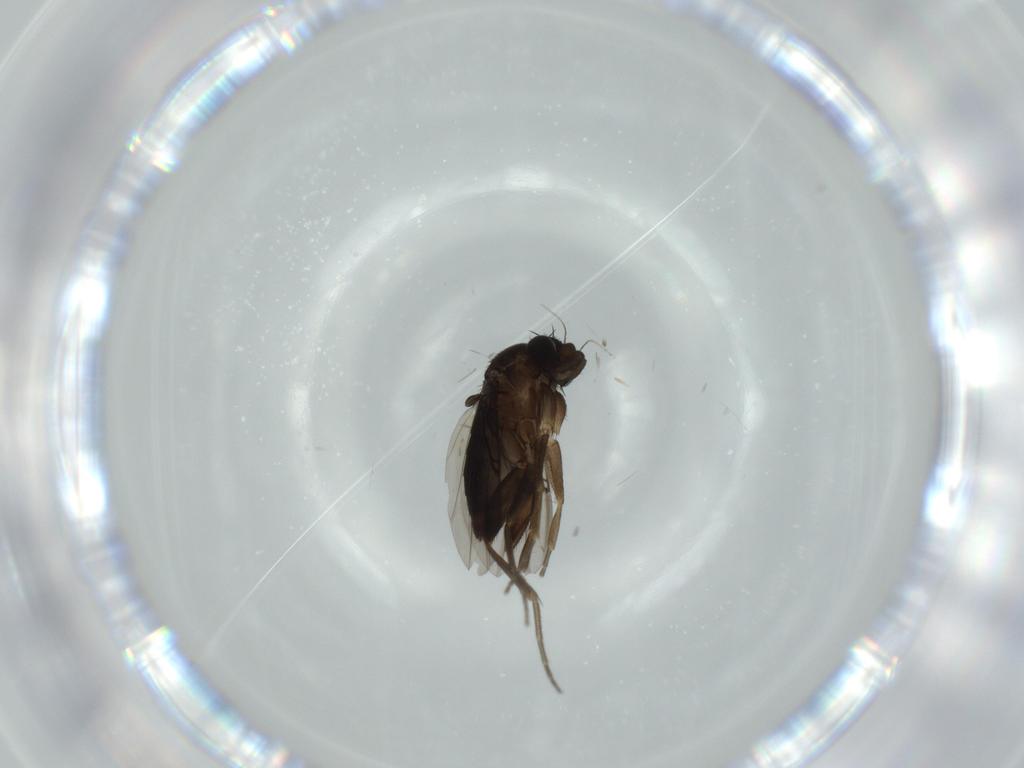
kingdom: Animalia
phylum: Arthropoda
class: Insecta
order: Diptera
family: Phoridae
